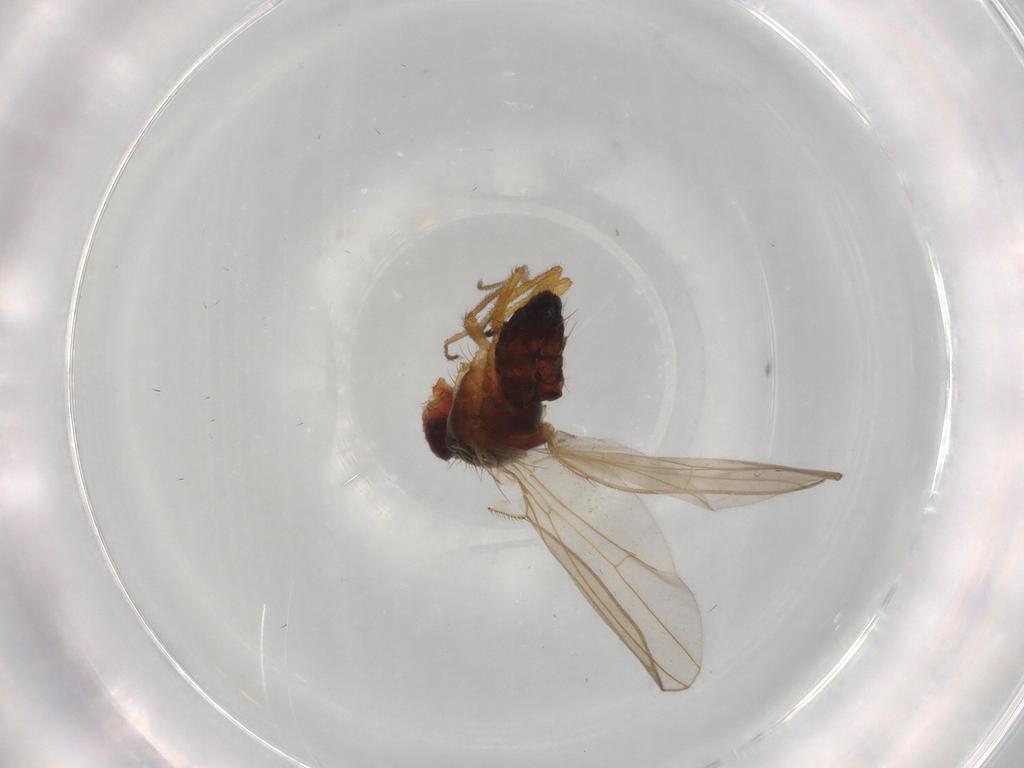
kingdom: Animalia
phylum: Arthropoda
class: Insecta
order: Diptera
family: Drosophilidae
